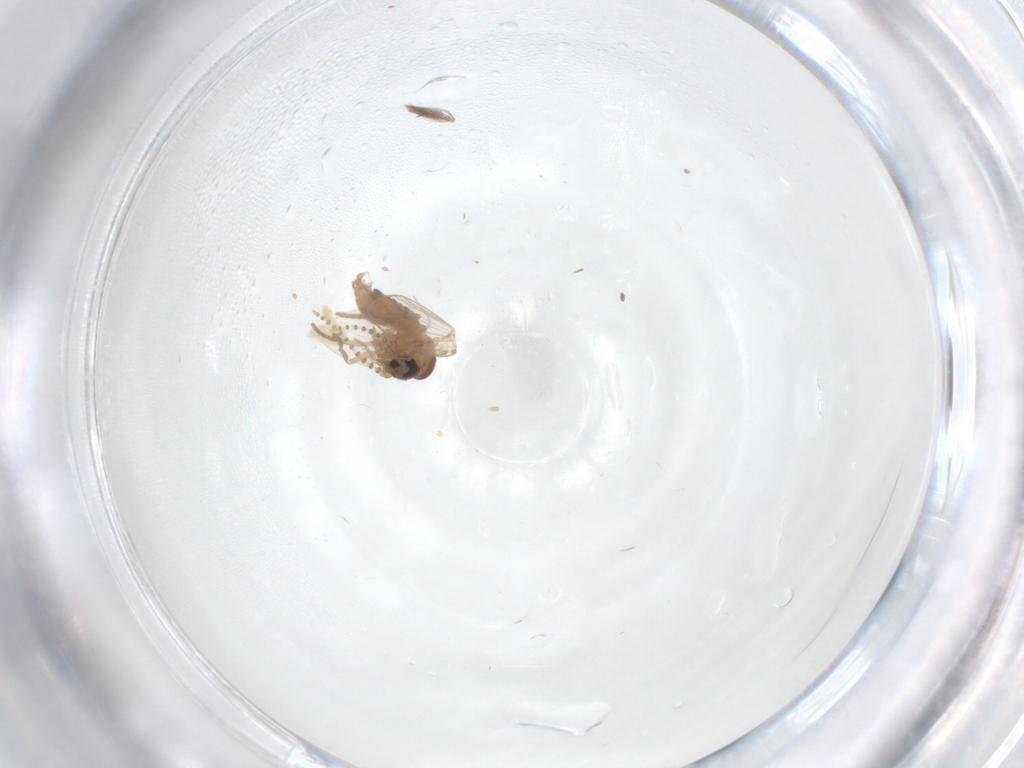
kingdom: Animalia
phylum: Arthropoda
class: Insecta
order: Diptera
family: Psychodidae
